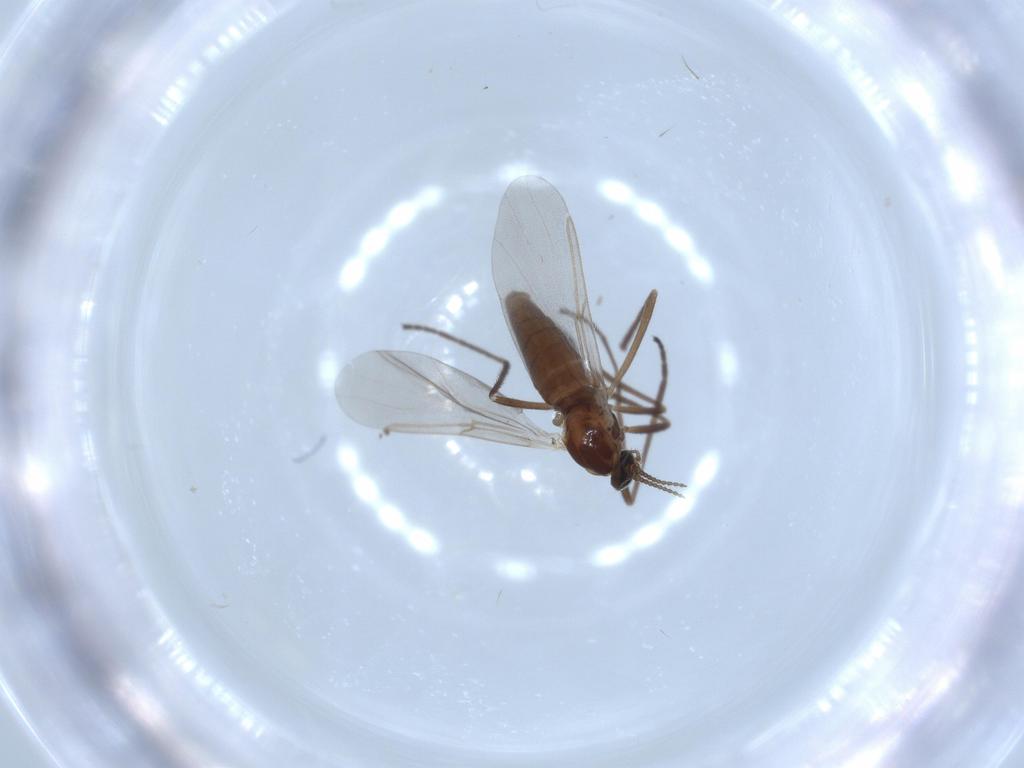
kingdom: Animalia
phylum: Arthropoda
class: Insecta
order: Diptera
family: Cecidomyiidae
